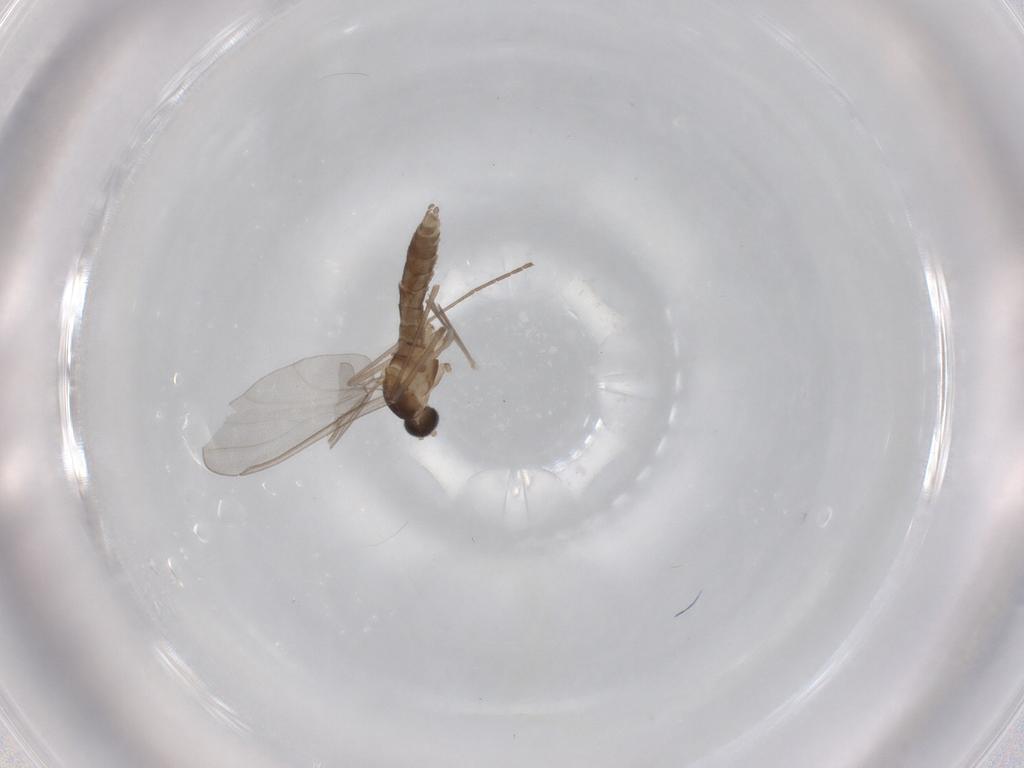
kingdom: Animalia
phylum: Arthropoda
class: Insecta
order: Diptera
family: Cecidomyiidae
